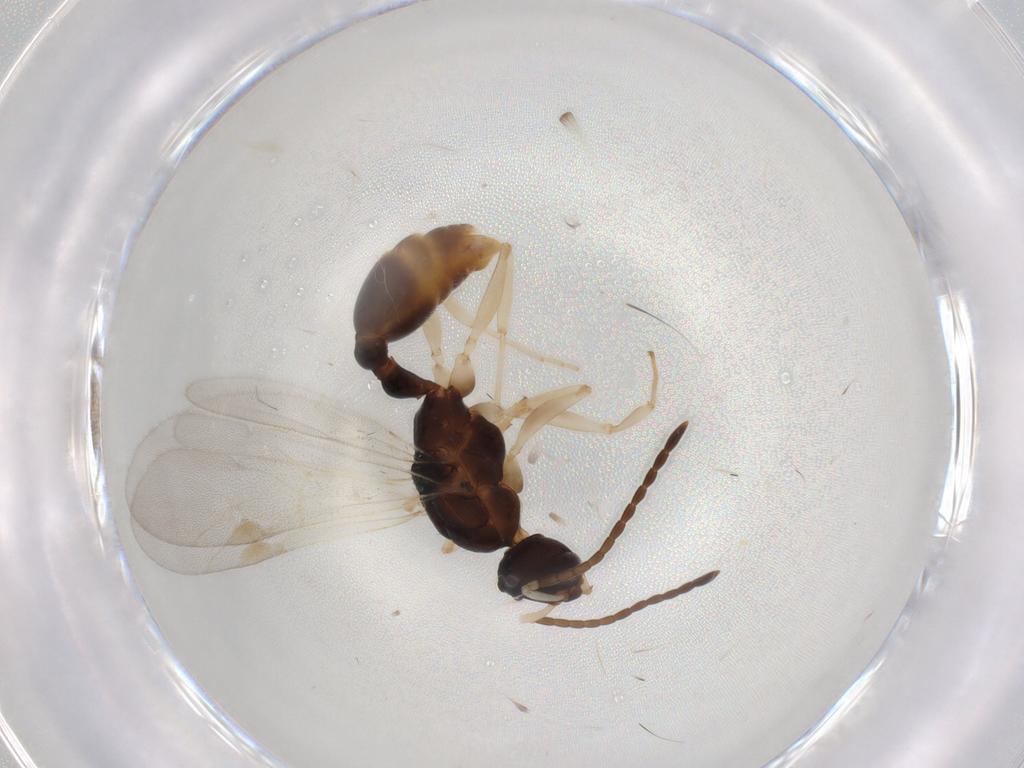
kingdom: Animalia
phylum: Arthropoda
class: Insecta
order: Hymenoptera
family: Formicidae
